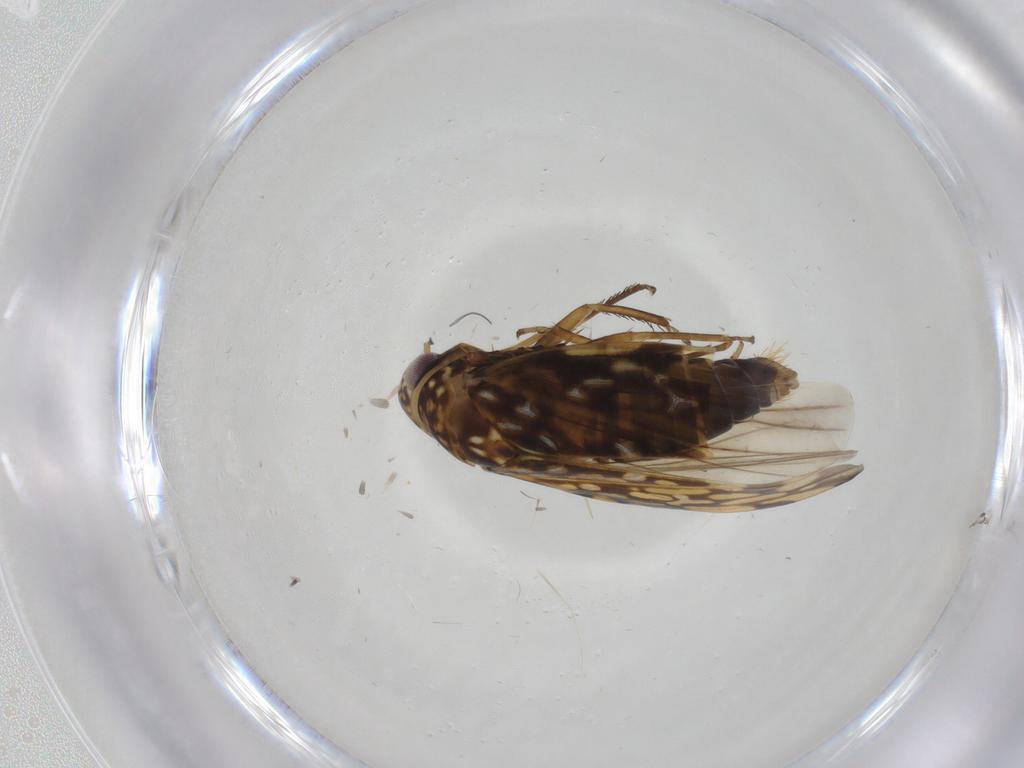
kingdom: Animalia
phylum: Arthropoda
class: Insecta
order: Hemiptera
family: Cicadellidae
